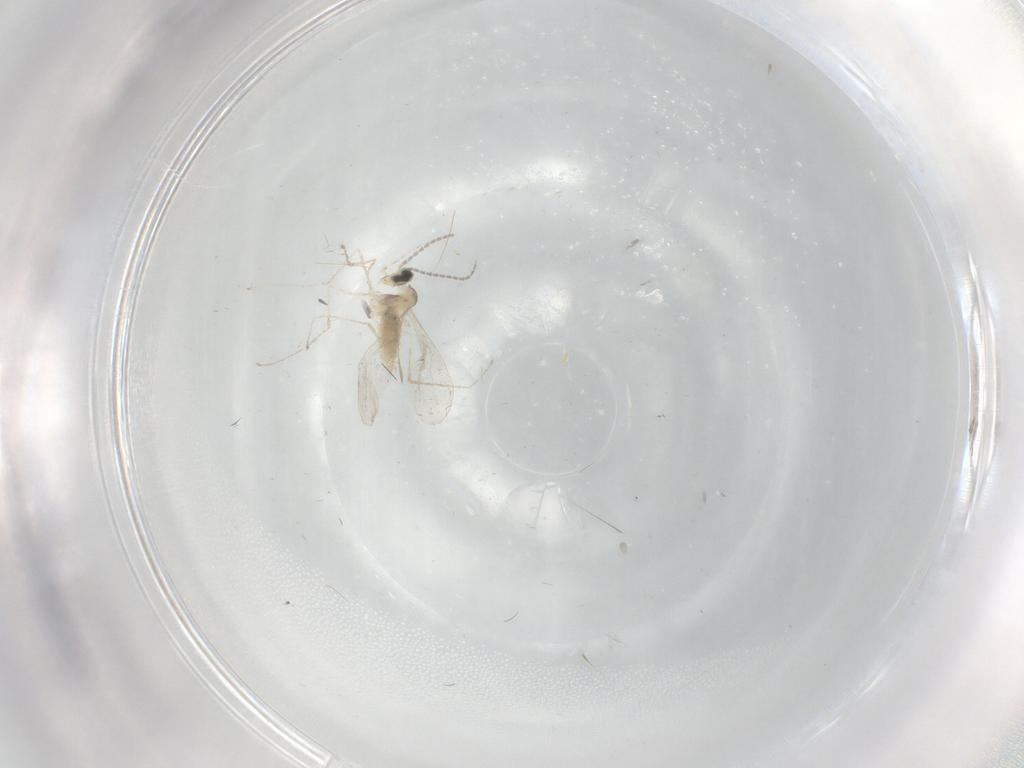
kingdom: Animalia
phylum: Arthropoda
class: Insecta
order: Diptera
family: Cecidomyiidae
